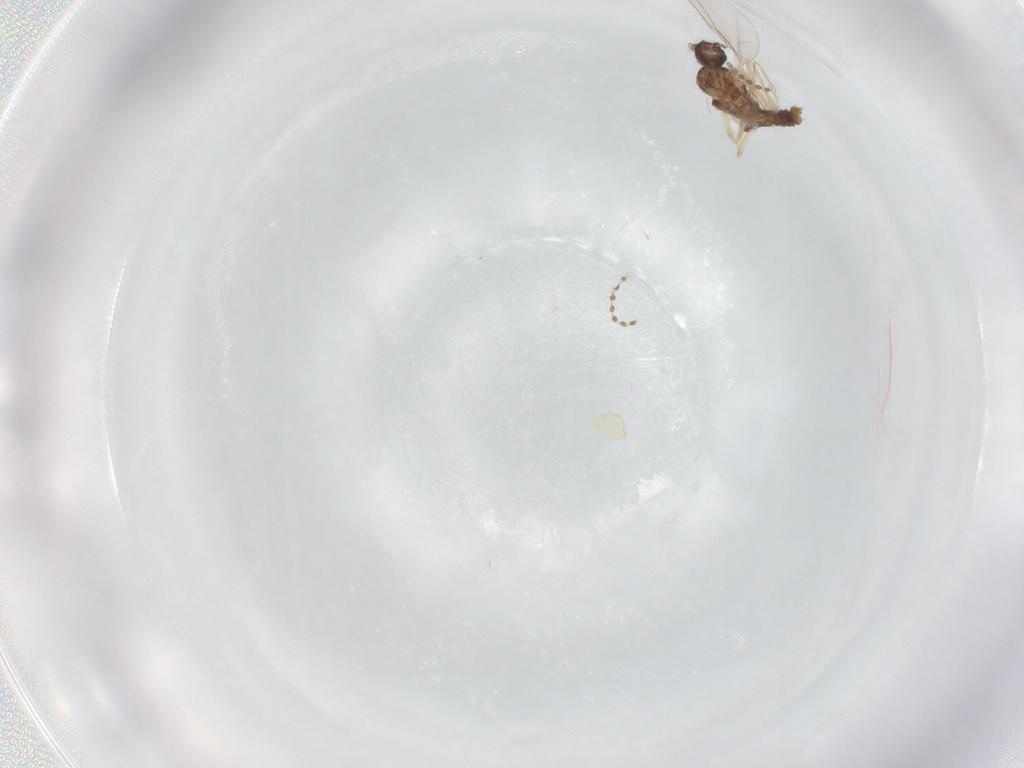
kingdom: Animalia
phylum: Arthropoda
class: Insecta
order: Diptera
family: Cecidomyiidae
